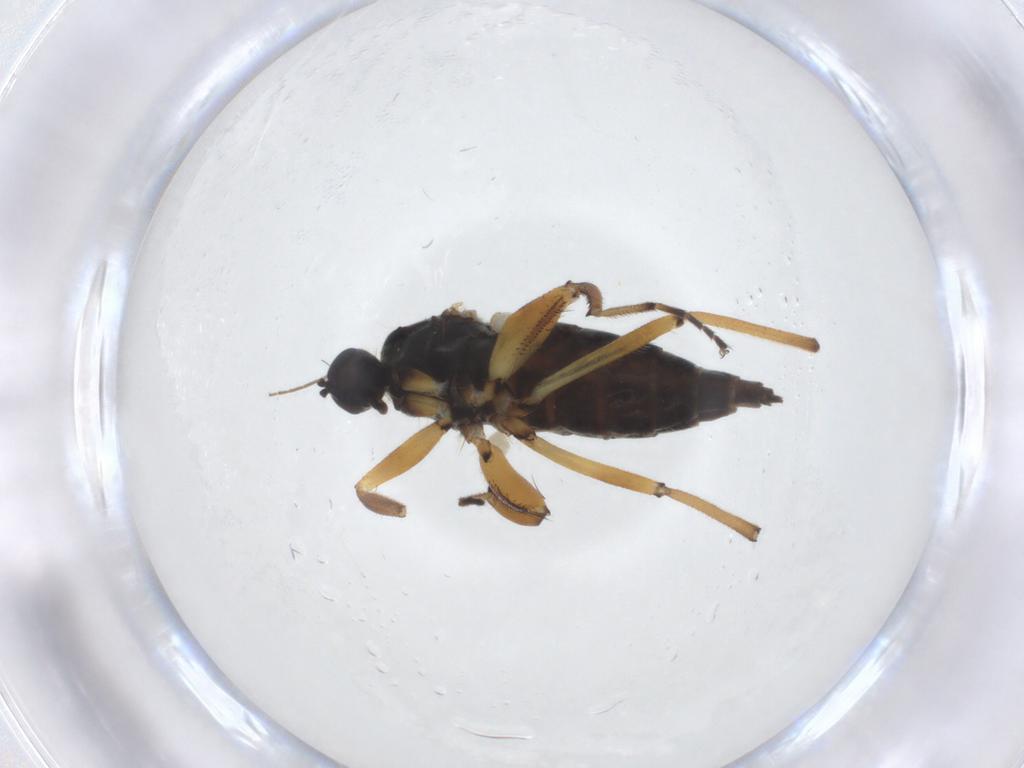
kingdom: Animalia
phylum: Arthropoda
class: Insecta
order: Diptera
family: Hybotidae
